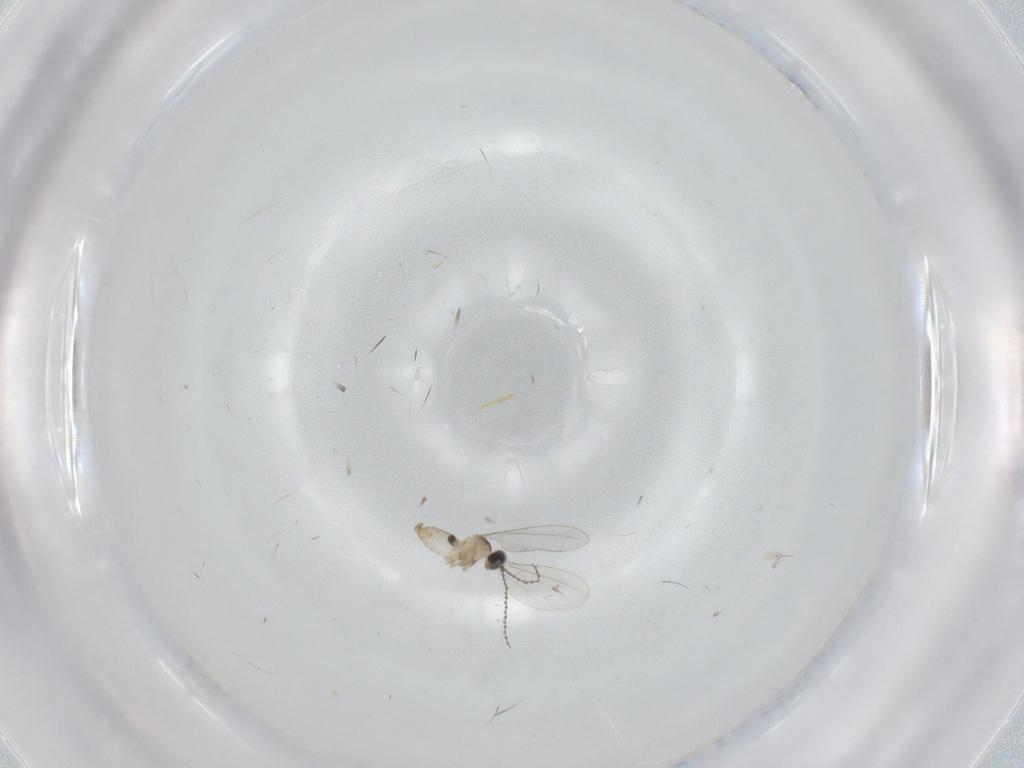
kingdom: Animalia
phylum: Arthropoda
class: Insecta
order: Diptera
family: Cecidomyiidae
